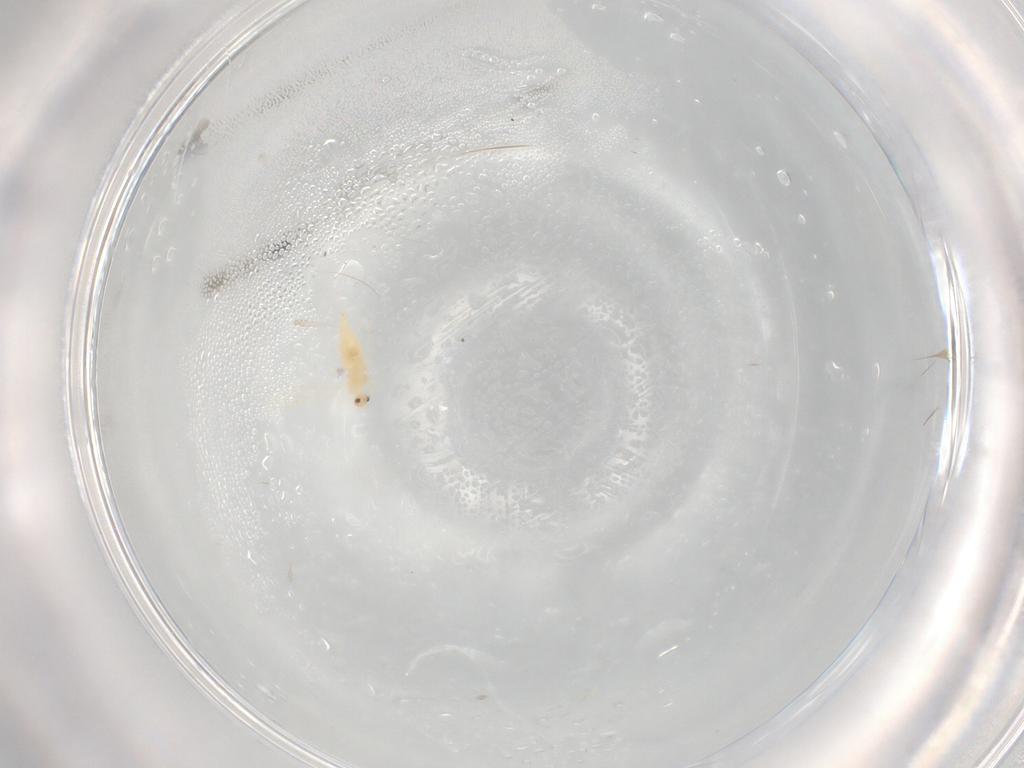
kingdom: Animalia
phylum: Arthropoda
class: Insecta
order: Diptera
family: Cecidomyiidae
